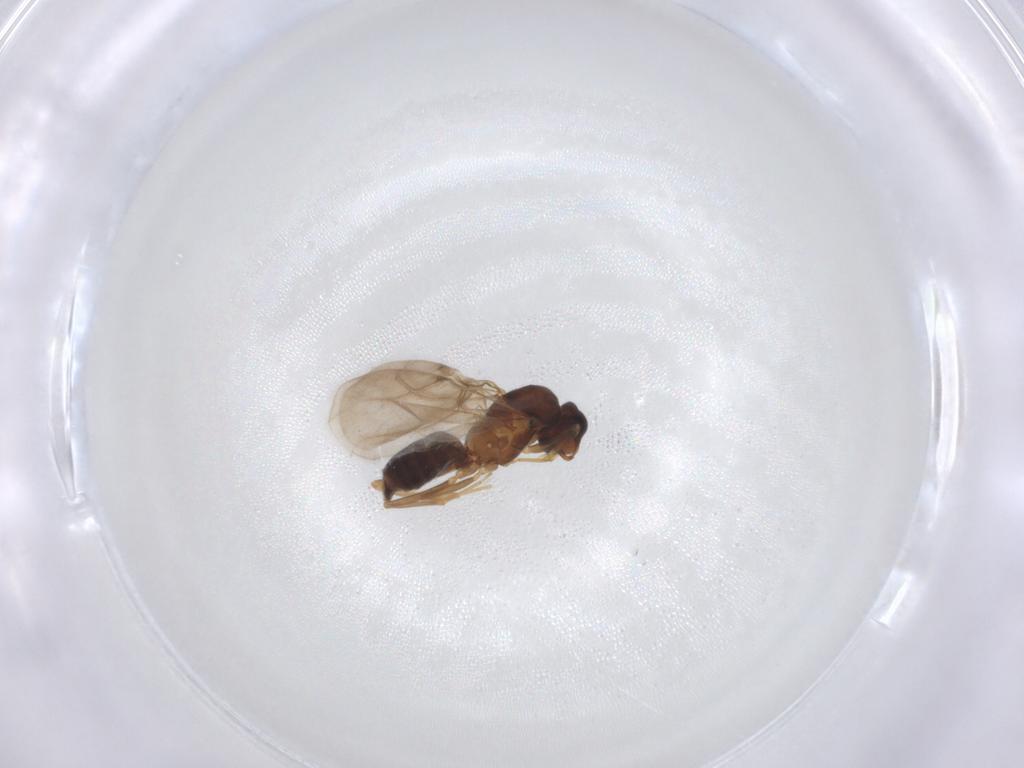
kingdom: Animalia
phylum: Arthropoda
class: Insecta
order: Hymenoptera
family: Formicidae
